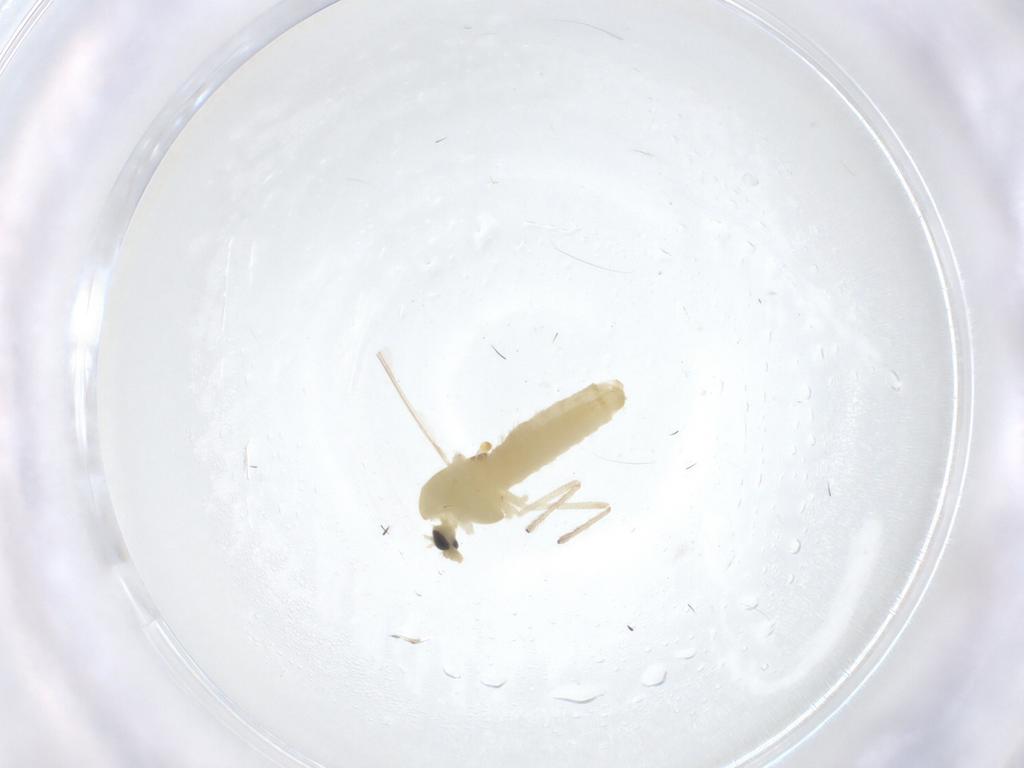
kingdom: Animalia
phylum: Arthropoda
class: Insecta
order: Diptera
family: Chironomidae
